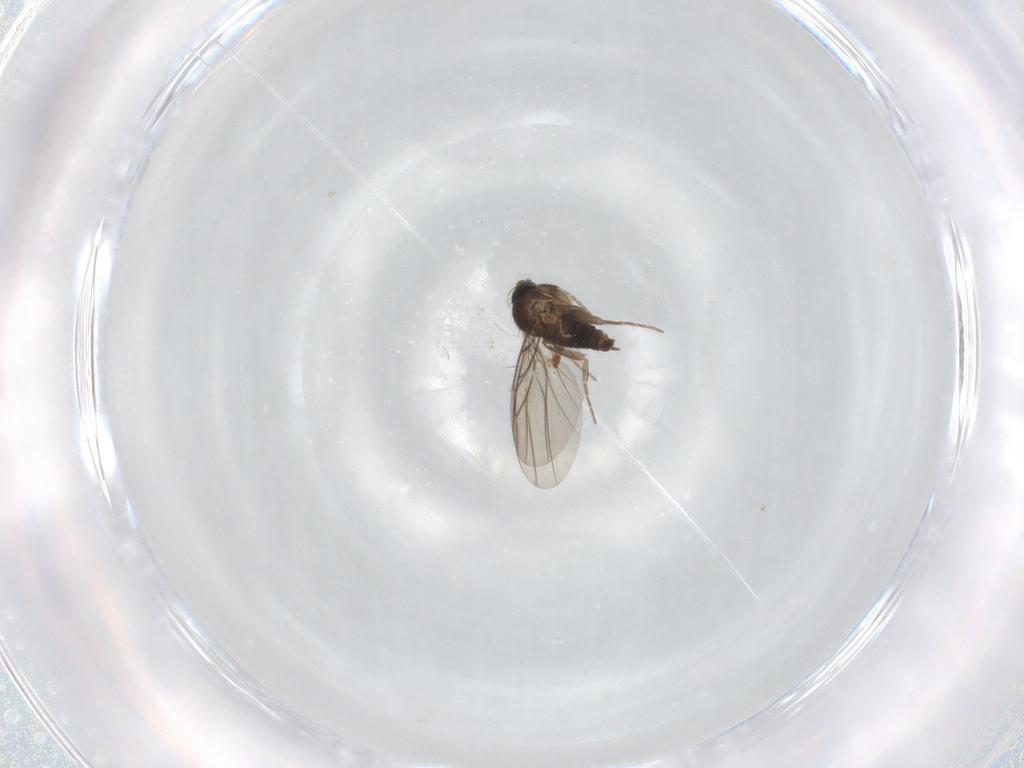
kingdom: Animalia
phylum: Arthropoda
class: Insecta
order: Diptera
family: Phoridae
